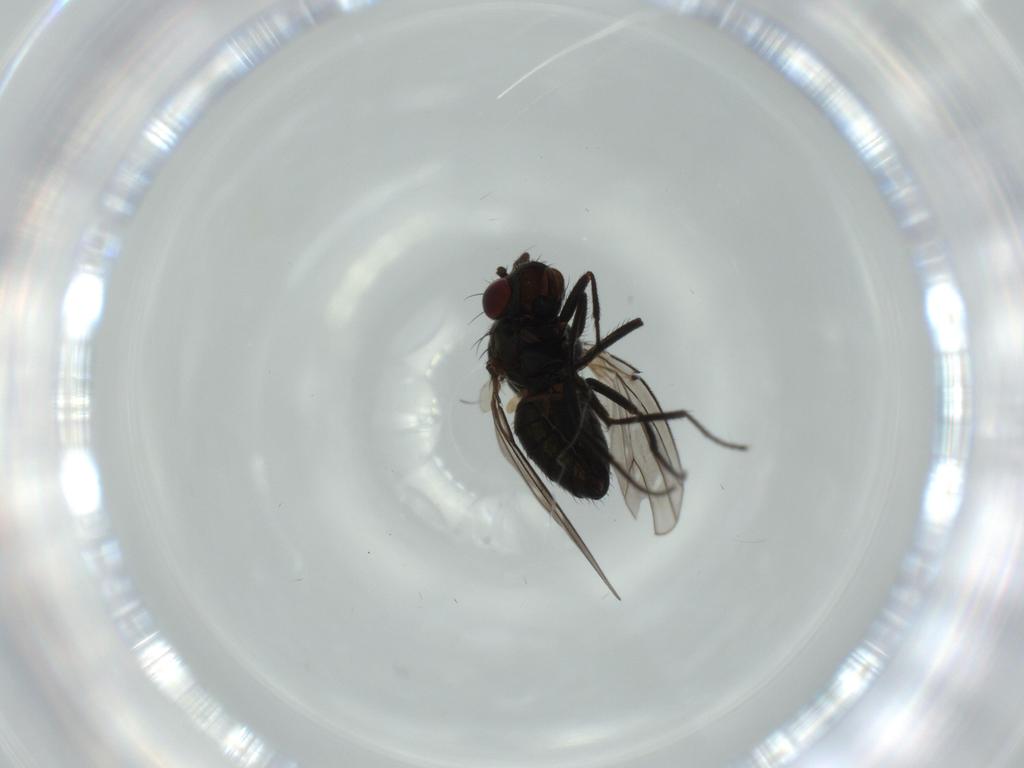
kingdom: Animalia
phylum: Arthropoda
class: Insecta
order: Diptera
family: Ephydridae
